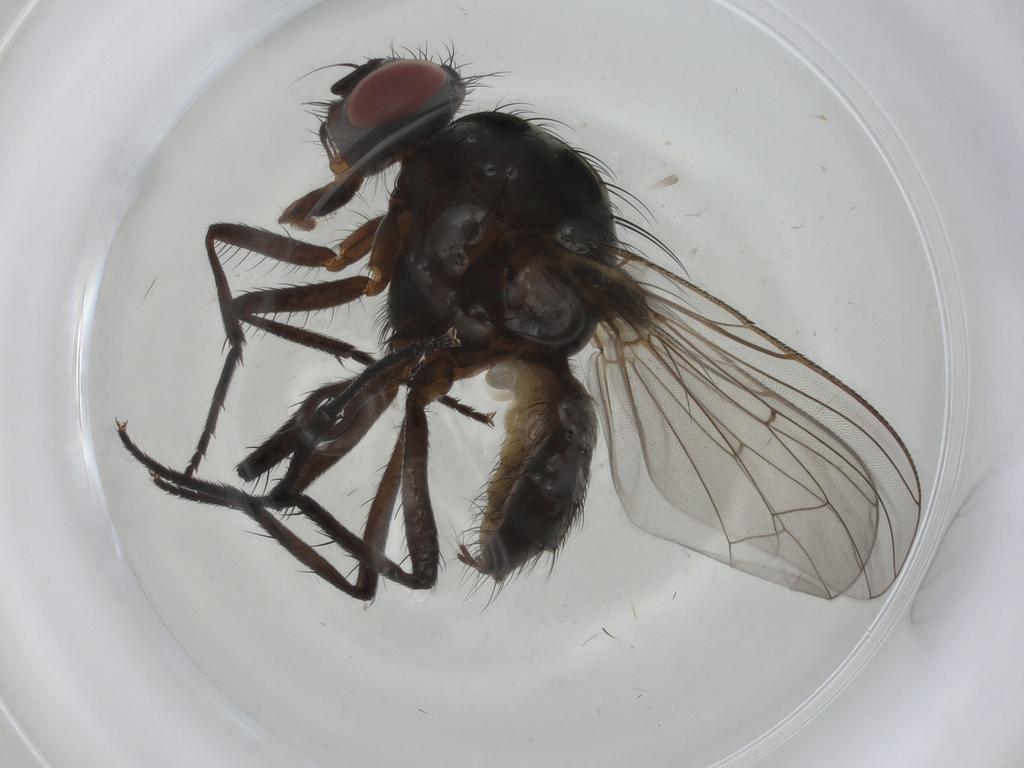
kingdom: Animalia
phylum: Arthropoda
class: Insecta
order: Diptera
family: Anthomyiidae
